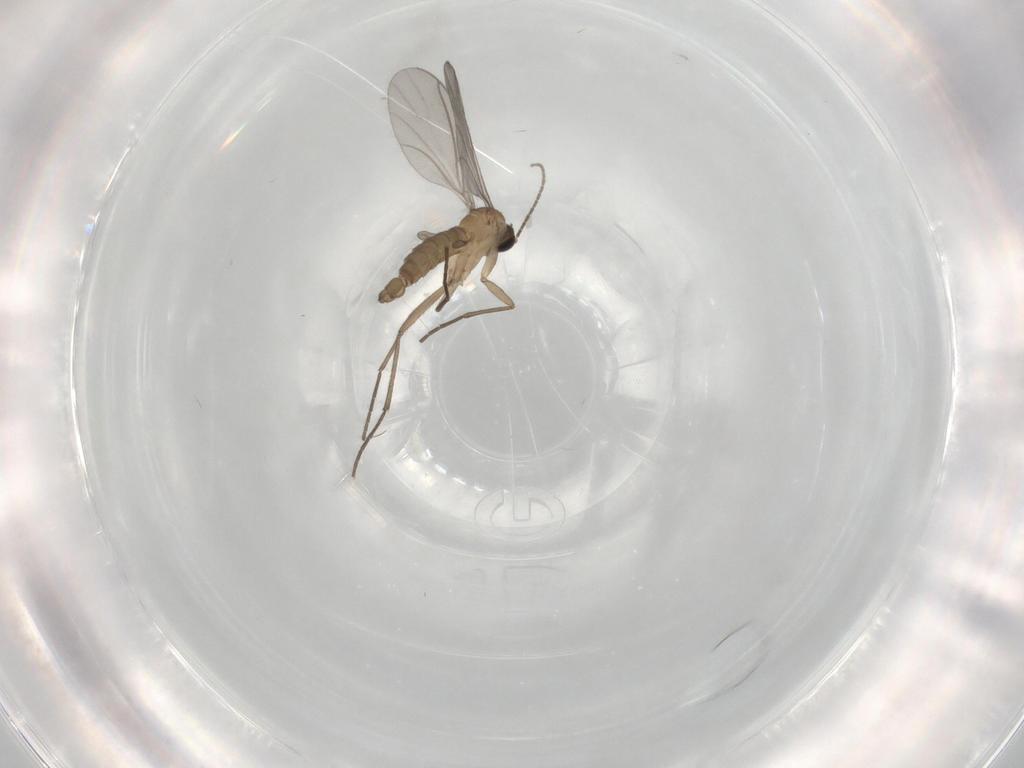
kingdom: Animalia
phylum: Arthropoda
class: Insecta
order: Diptera
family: Sciaridae
